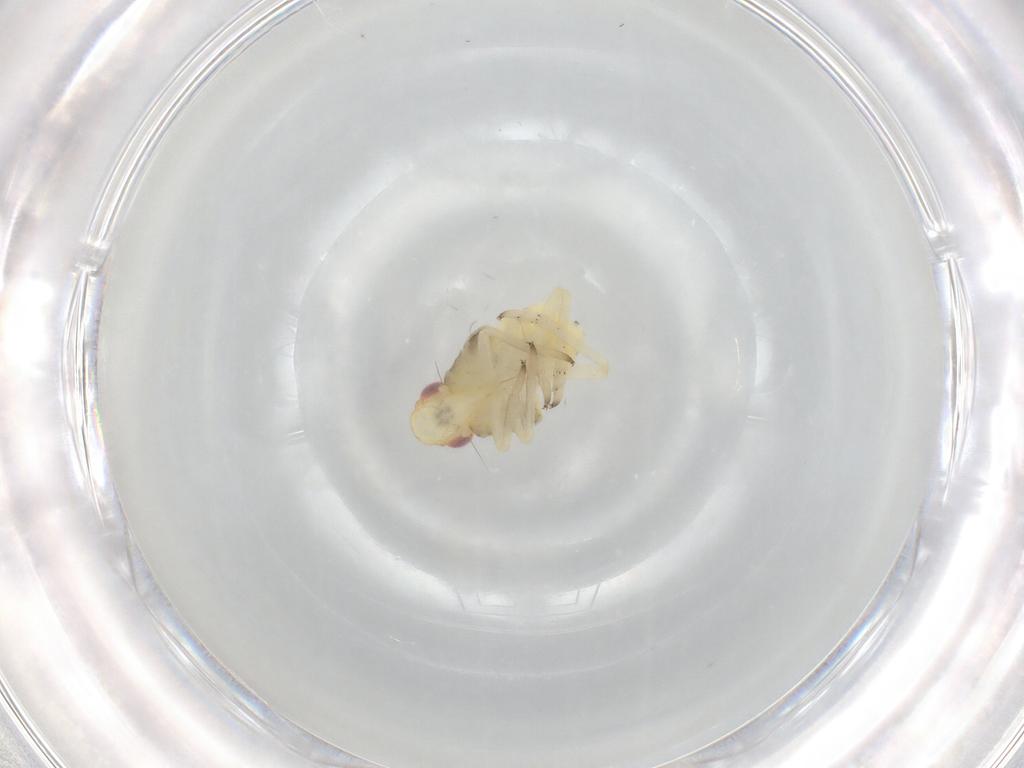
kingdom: Animalia
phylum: Arthropoda
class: Insecta
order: Hemiptera
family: Caliscelidae
